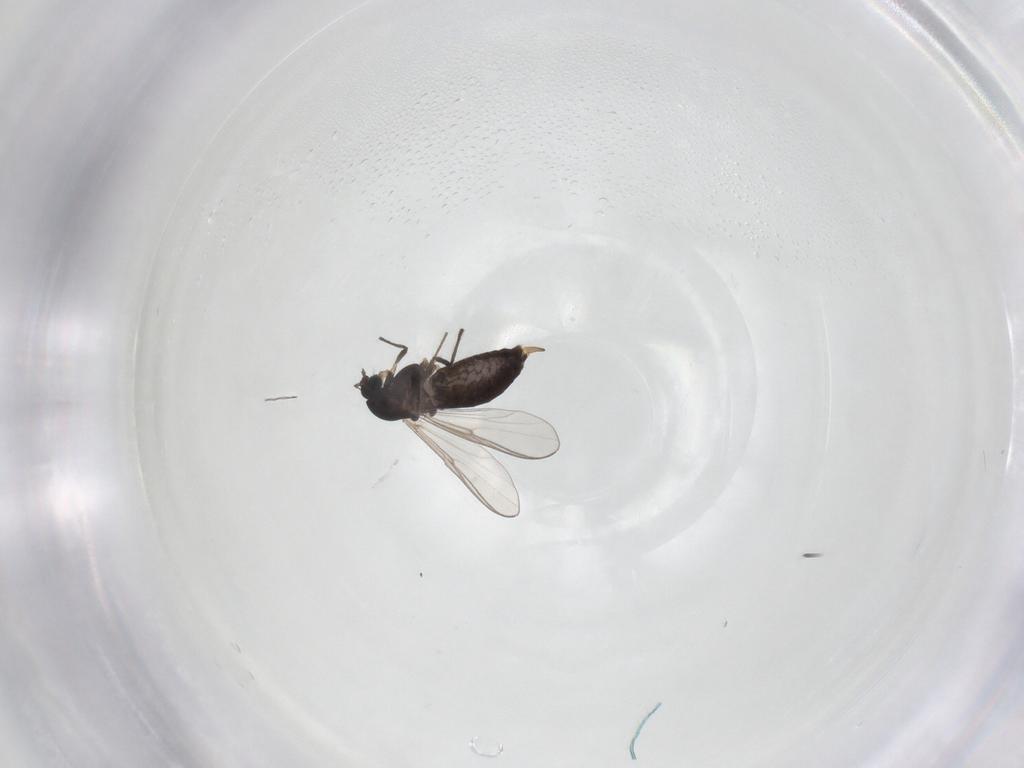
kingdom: Animalia
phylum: Arthropoda
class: Insecta
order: Diptera
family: Chironomidae
